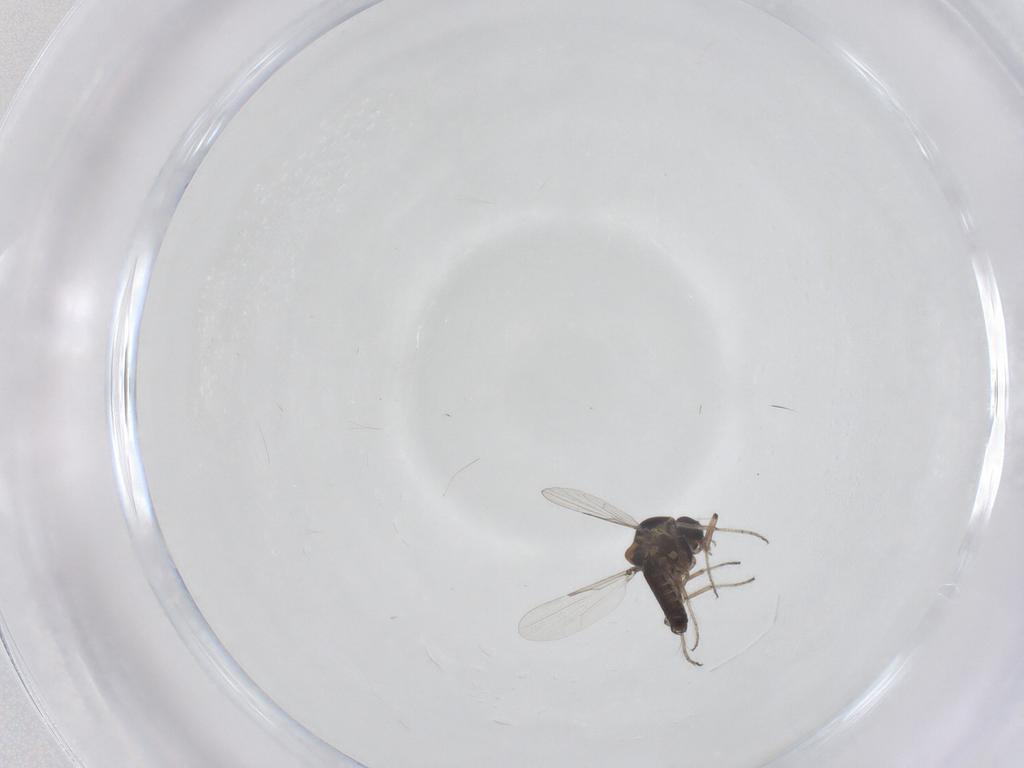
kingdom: Animalia
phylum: Arthropoda
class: Insecta
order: Diptera
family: Ceratopogonidae
